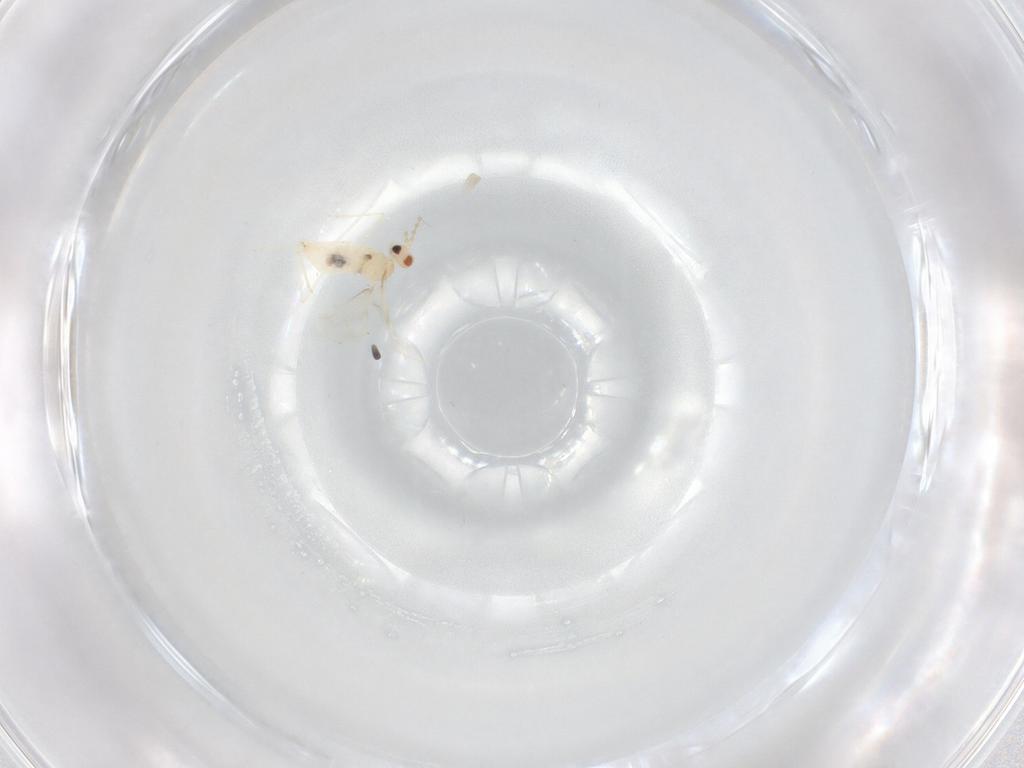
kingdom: Animalia
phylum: Arthropoda
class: Insecta
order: Diptera
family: Cecidomyiidae
